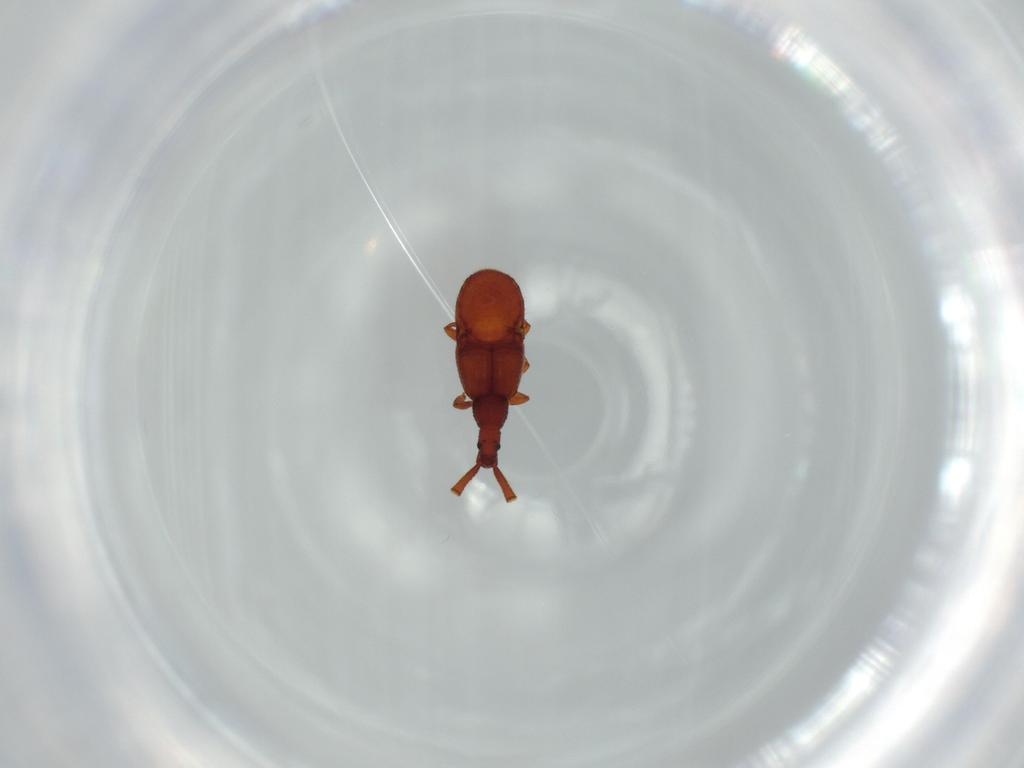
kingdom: Animalia
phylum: Arthropoda
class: Insecta
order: Coleoptera
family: Staphylinidae
